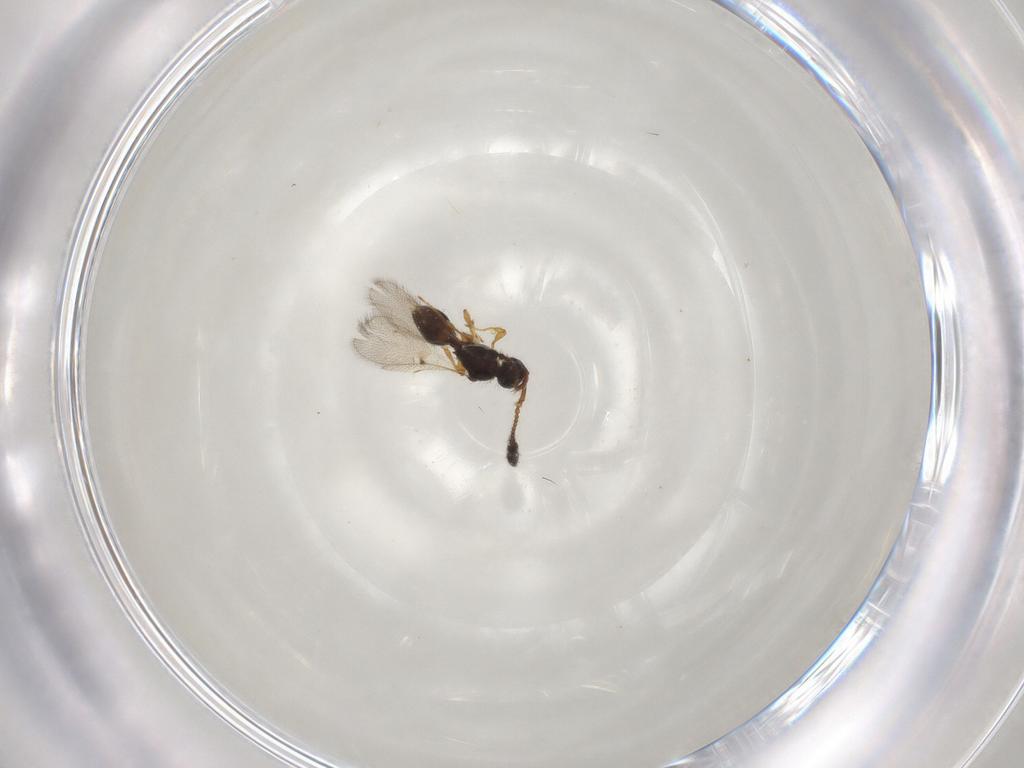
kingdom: Animalia
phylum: Arthropoda
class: Insecta
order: Hymenoptera
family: Diapriidae
